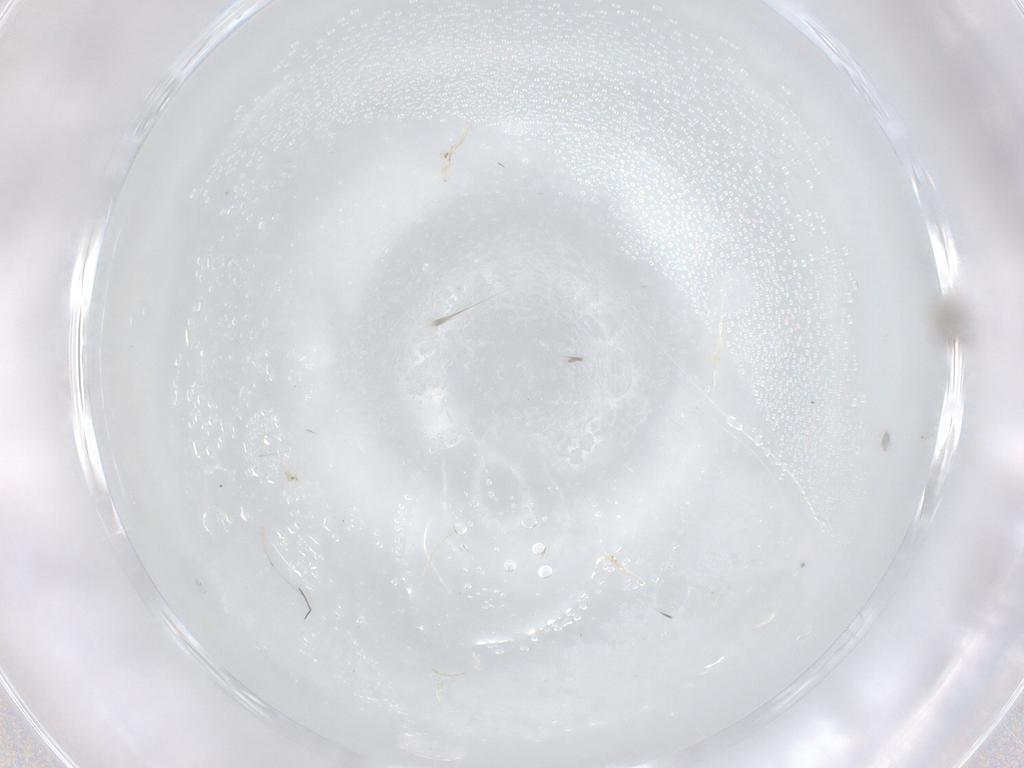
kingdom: Animalia
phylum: Arthropoda
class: Insecta
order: Diptera
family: Cecidomyiidae
